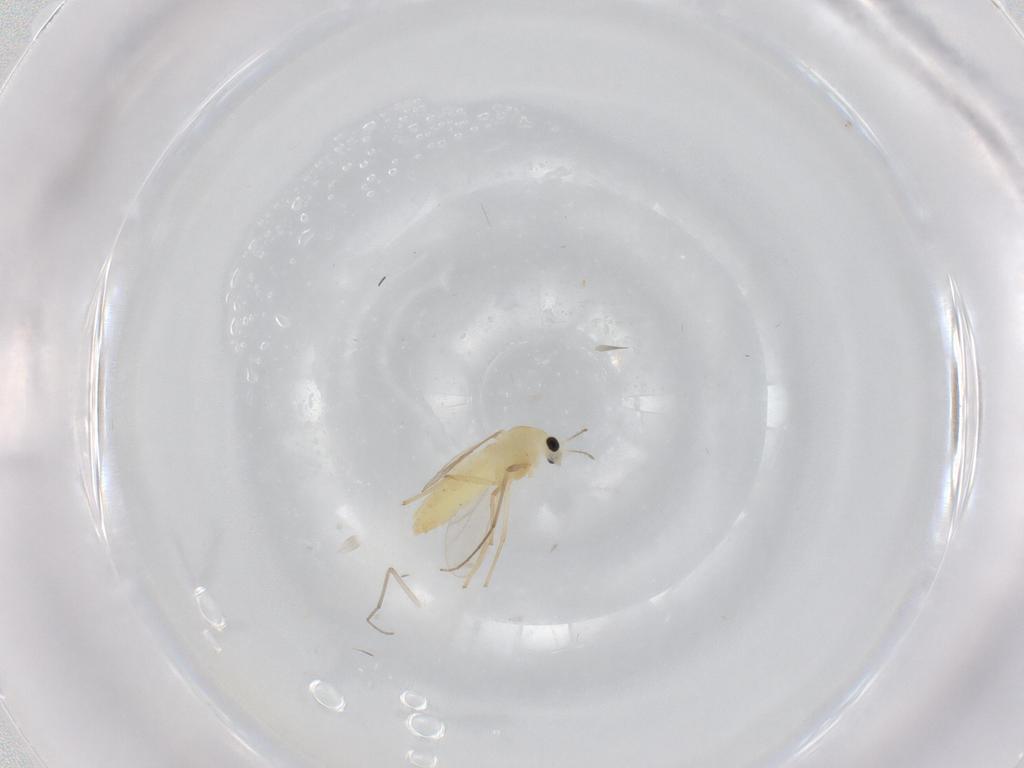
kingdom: Animalia
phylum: Arthropoda
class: Insecta
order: Diptera
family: Chironomidae
